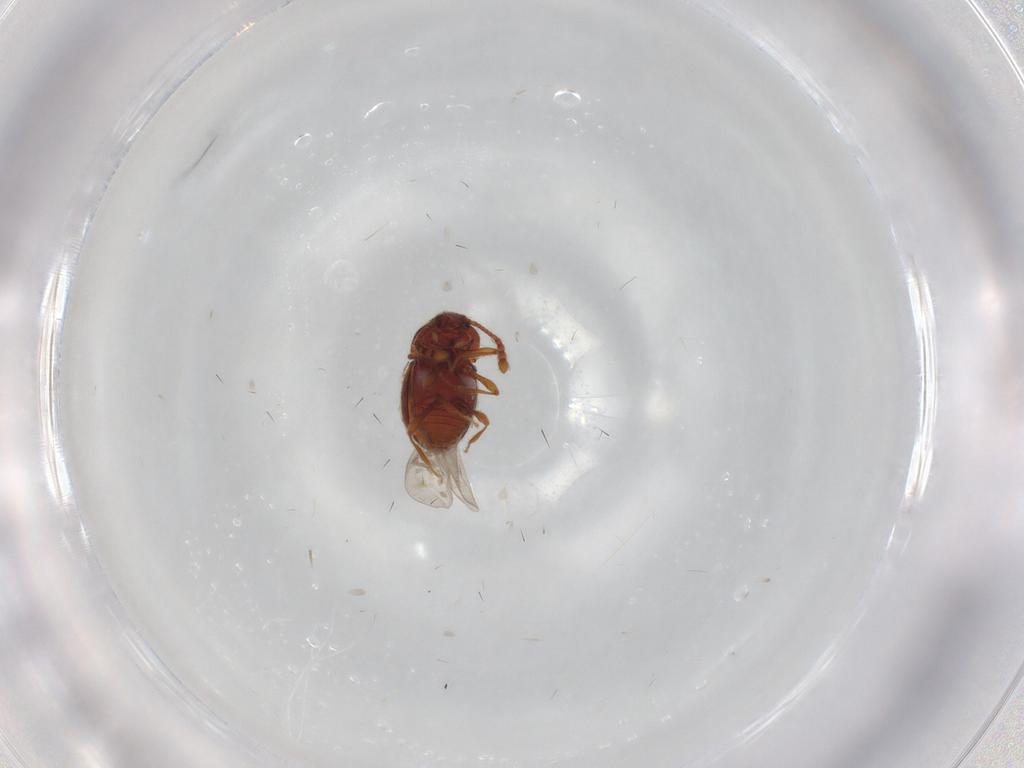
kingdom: Animalia
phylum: Arthropoda
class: Insecta
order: Coleoptera
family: Staphylinidae
